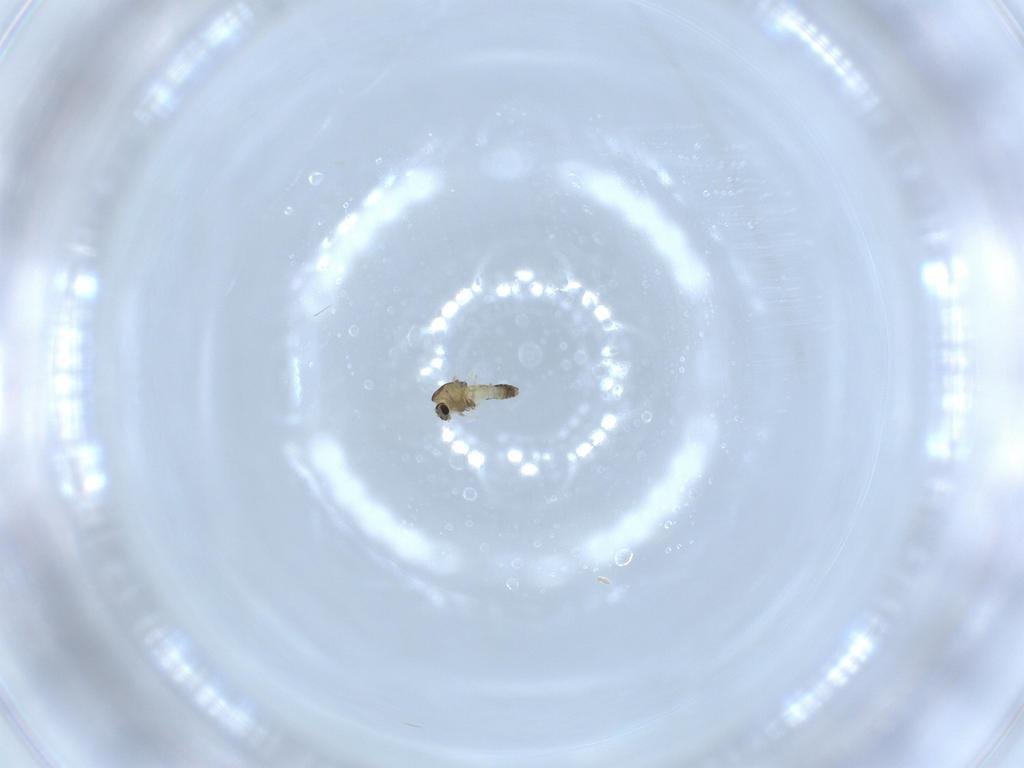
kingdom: Animalia
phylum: Arthropoda
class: Insecta
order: Diptera
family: Chironomidae
